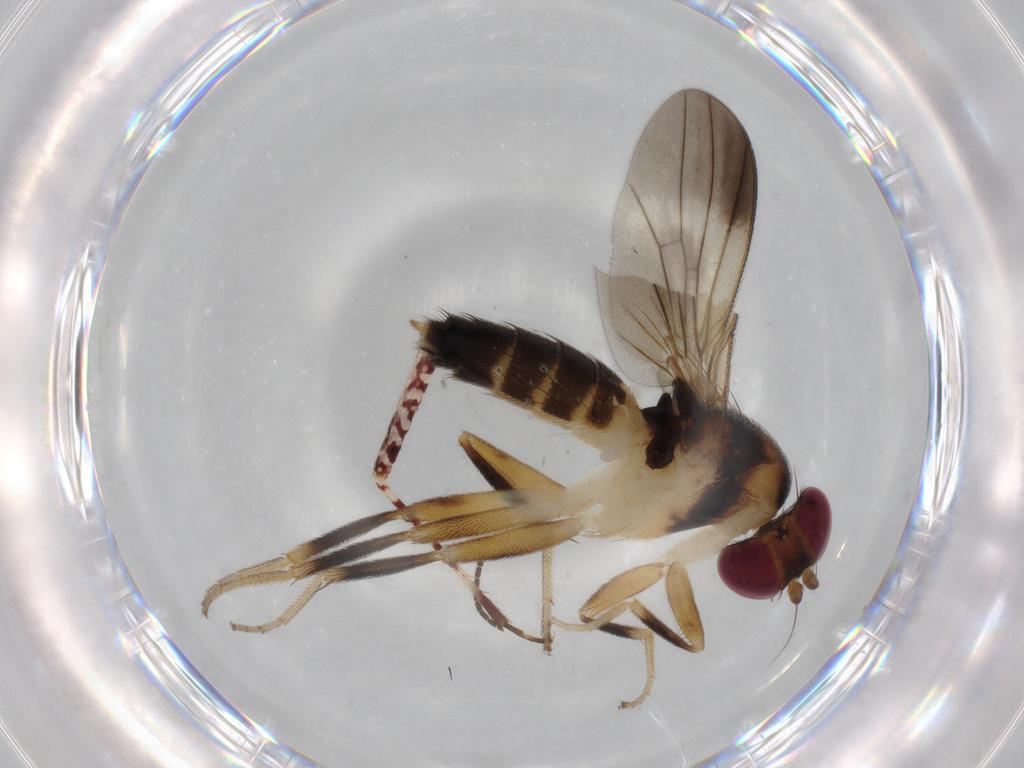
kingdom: Animalia
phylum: Arthropoda
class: Insecta
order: Diptera
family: Clusiidae
